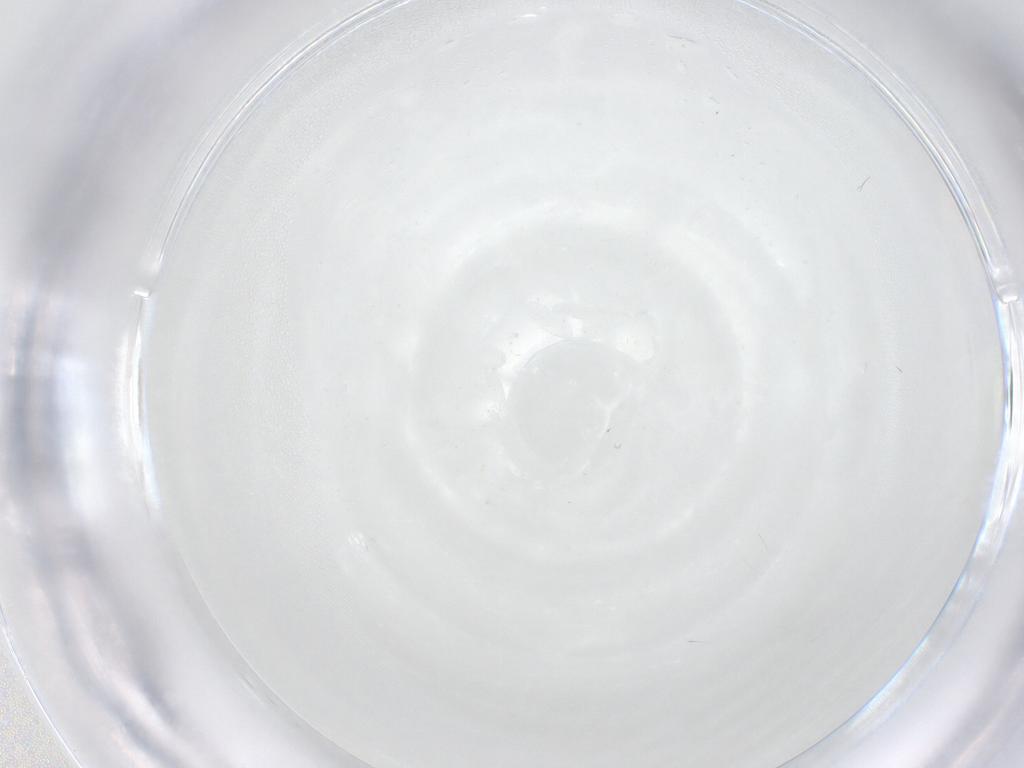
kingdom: Animalia
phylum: Arthropoda
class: Insecta
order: Diptera
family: Cecidomyiidae
